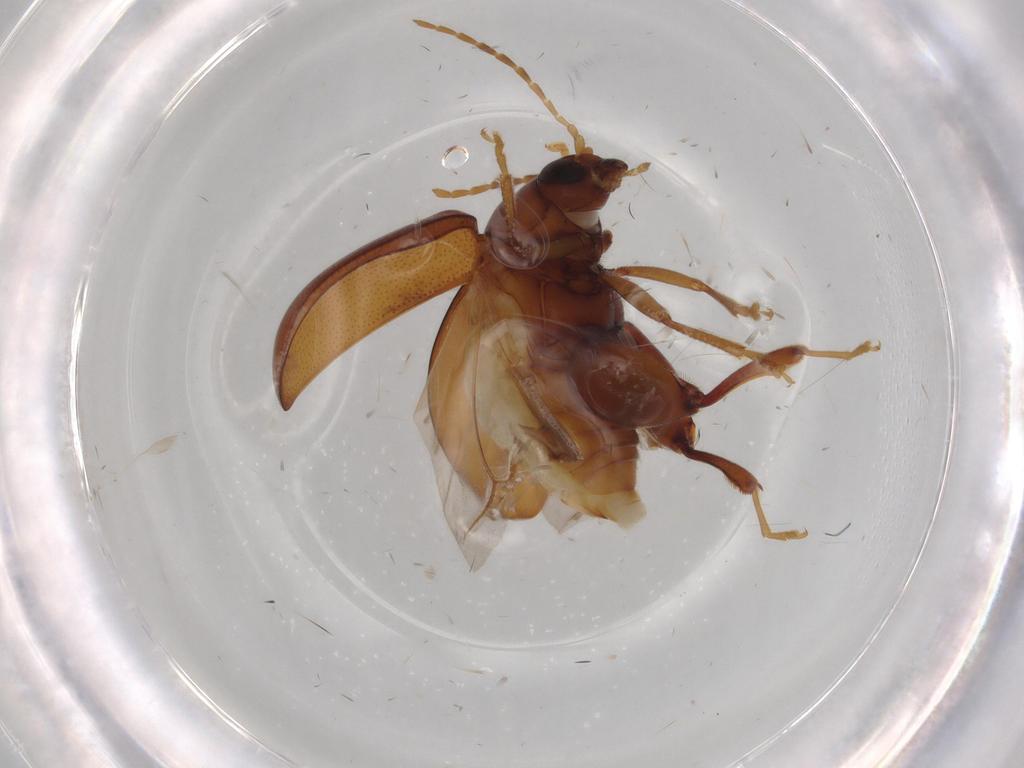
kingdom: Animalia
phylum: Arthropoda
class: Insecta
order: Coleoptera
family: Chrysomelidae
